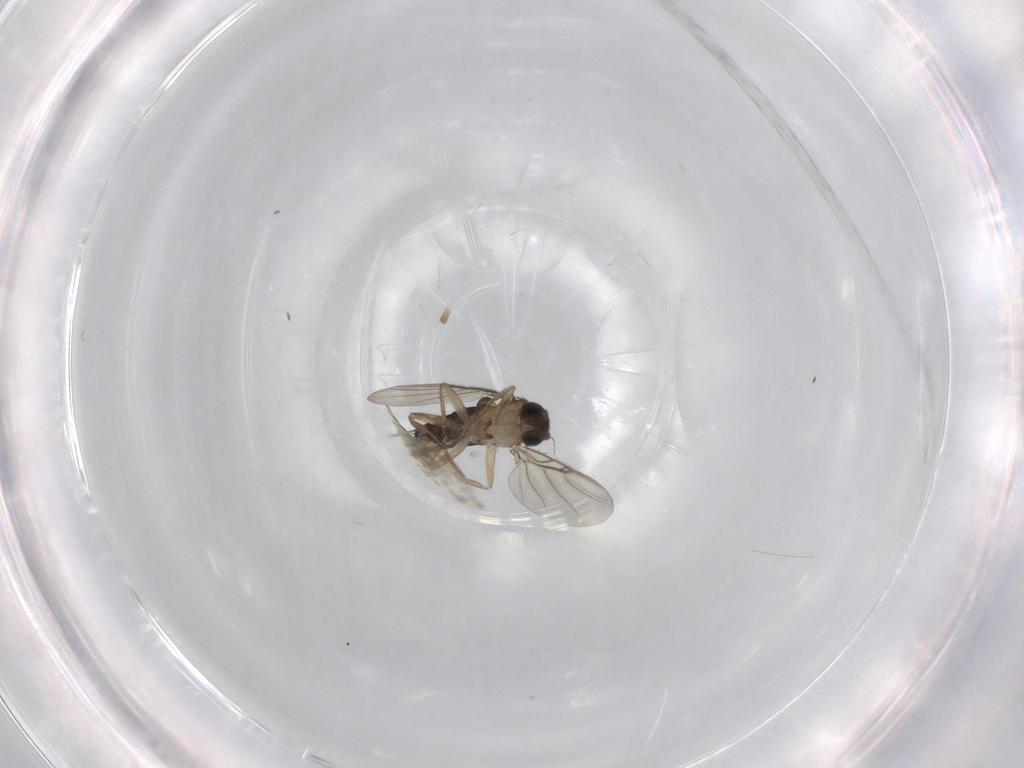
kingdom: Animalia
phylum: Arthropoda
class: Insecta
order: Diptera
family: Phoridae
